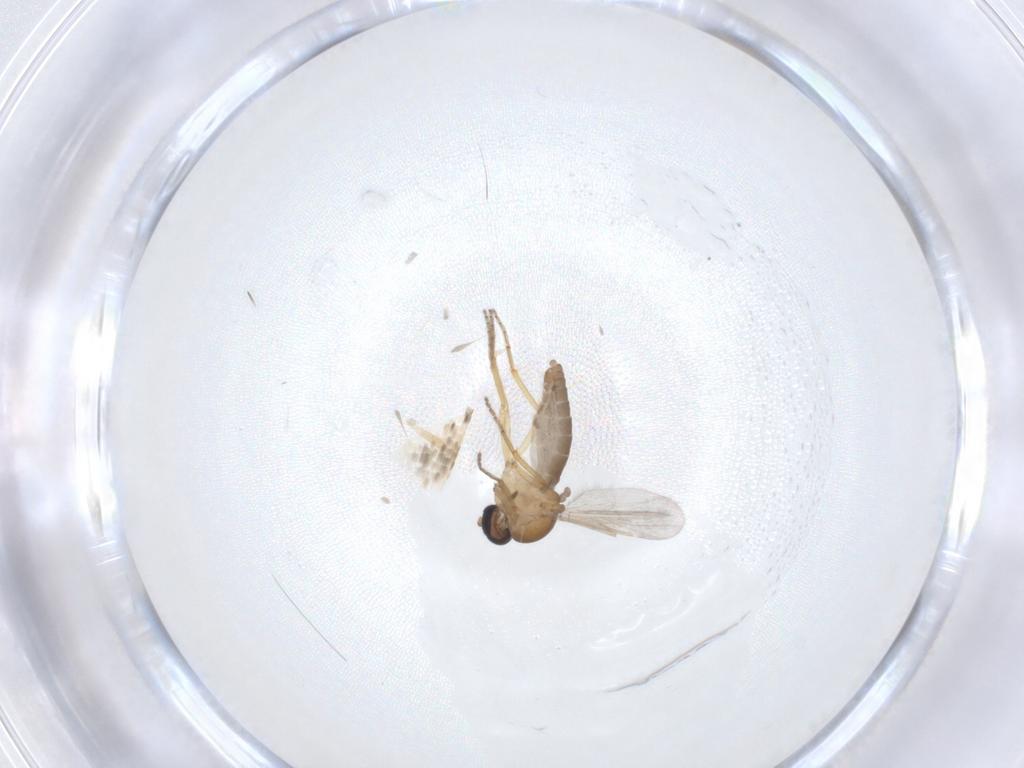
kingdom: Animalia
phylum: Arthropoda
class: Insecta
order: Diptera
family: Ceratopogonidae
